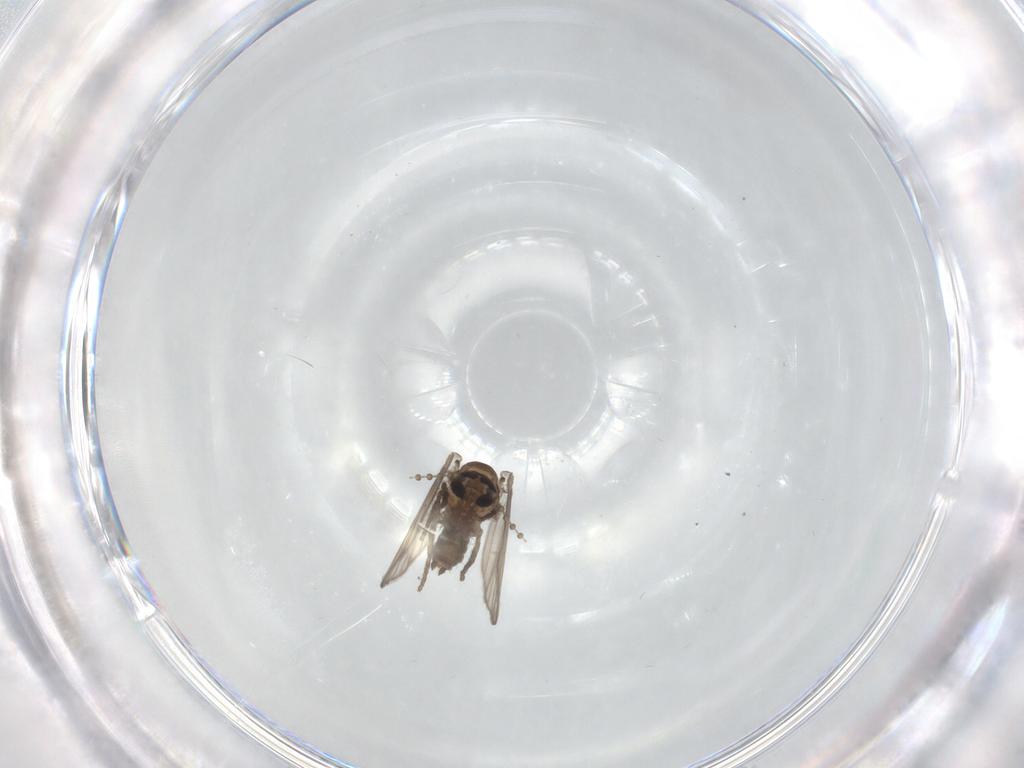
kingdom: Animalia
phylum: Arthropoda
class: Insecta
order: Diptera
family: Psychodidae
